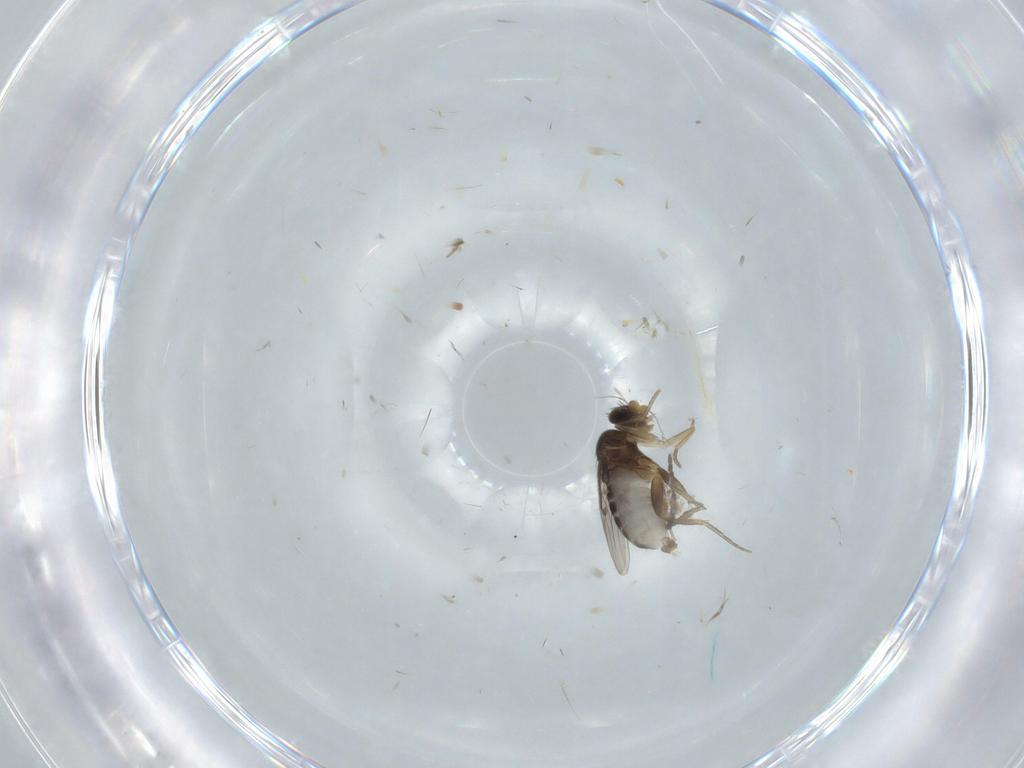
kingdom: Animalia
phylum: Arthropoda
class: Insecta
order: Diptera
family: Phoridae
